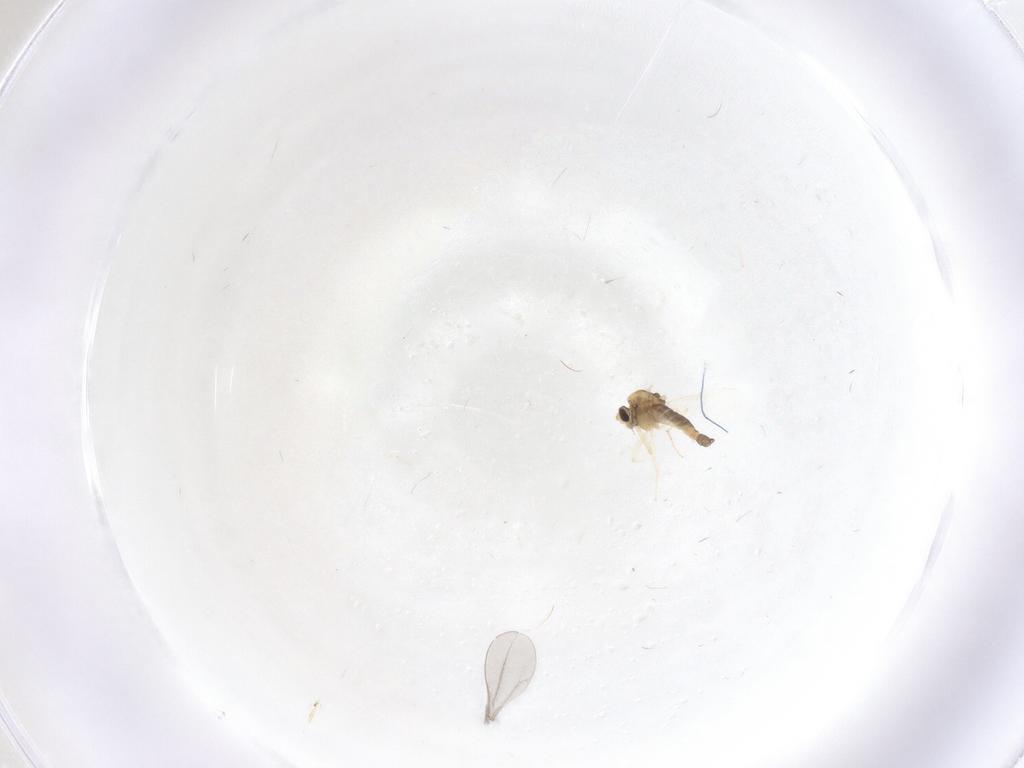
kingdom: Animalia
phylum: Arthropoda
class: Insecta
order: Diptera
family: Chironomidae
